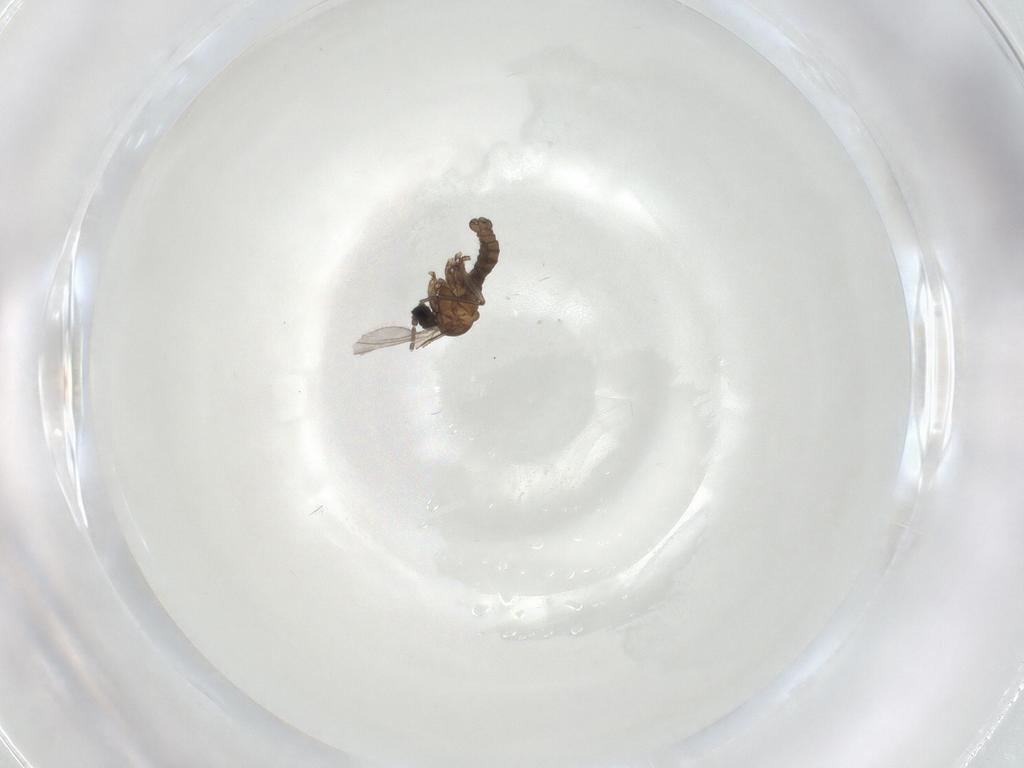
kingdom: Animalia
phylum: Arthropoda
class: Insecta
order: Diptera
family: Sciaridae
